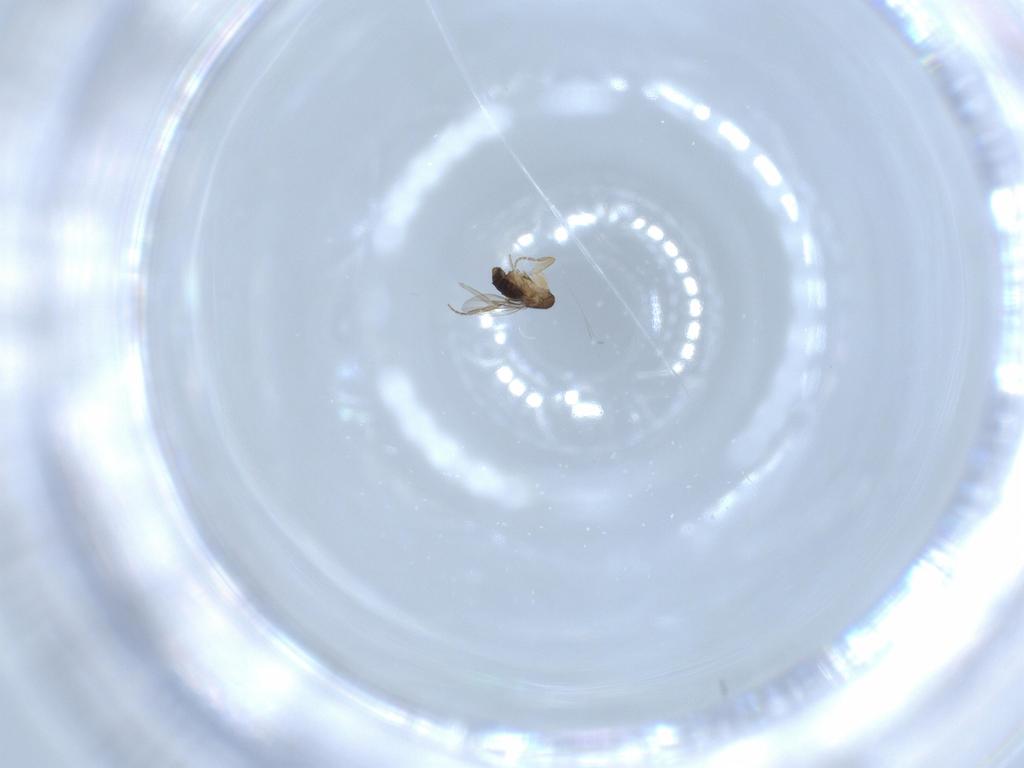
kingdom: Animalia
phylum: Arthropoda
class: Insecta
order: Diptera
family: Phoridae
